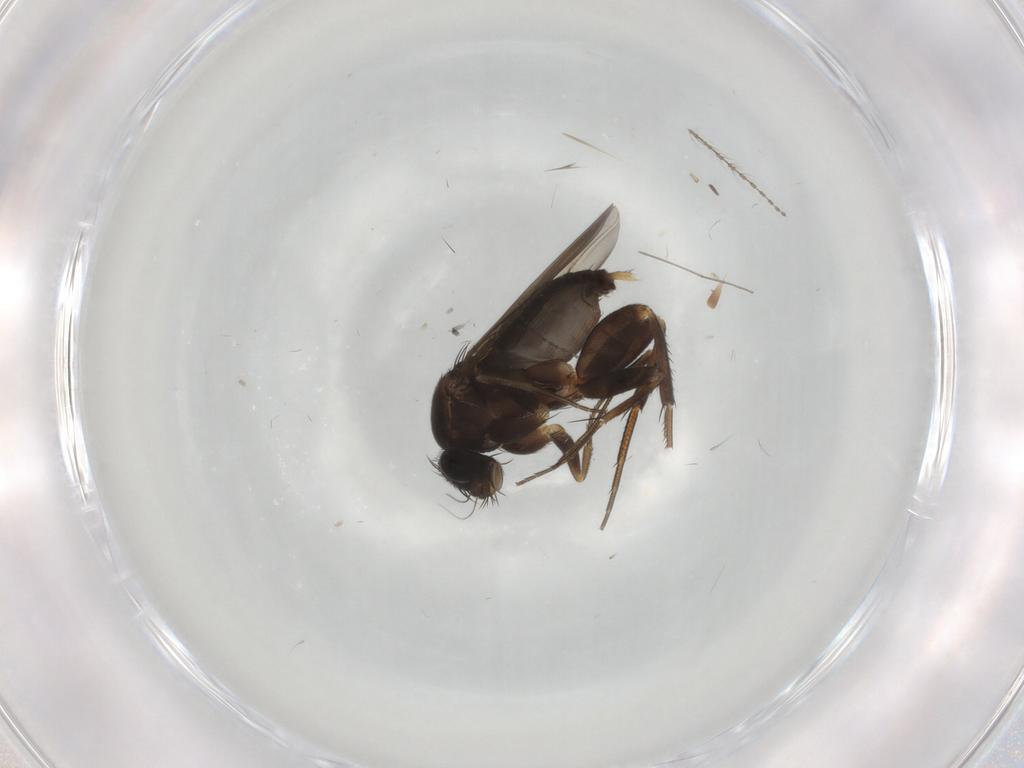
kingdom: Animalia
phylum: Arthropoda
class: Insecta
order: Diptera
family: Phoridae
